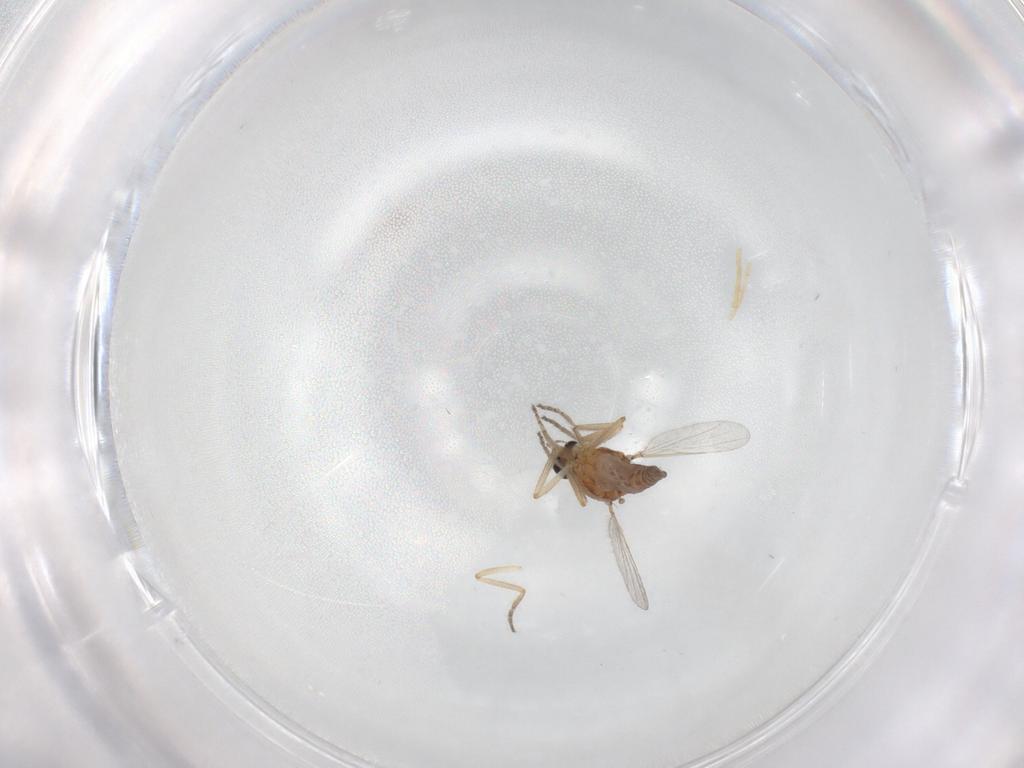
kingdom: Animalia
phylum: Arthropoda
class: Insecta
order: Diptera
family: Ceratopogonidae
